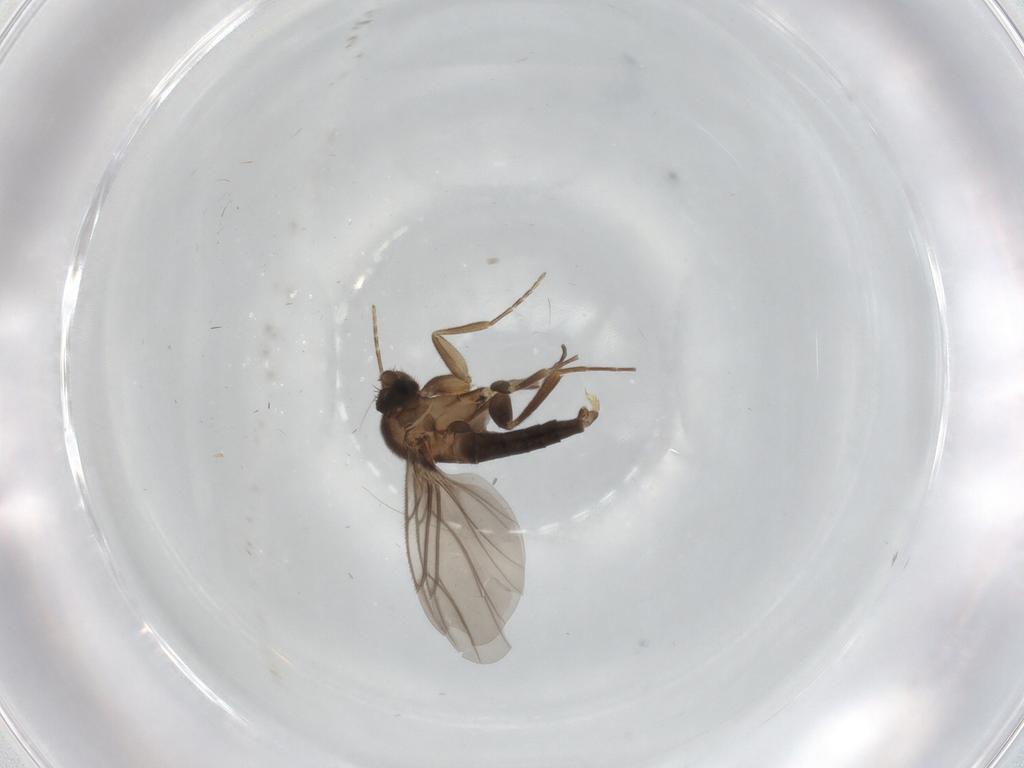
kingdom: Animalia
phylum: Arthropoda
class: Insecta
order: Diptera
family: Phoridae
